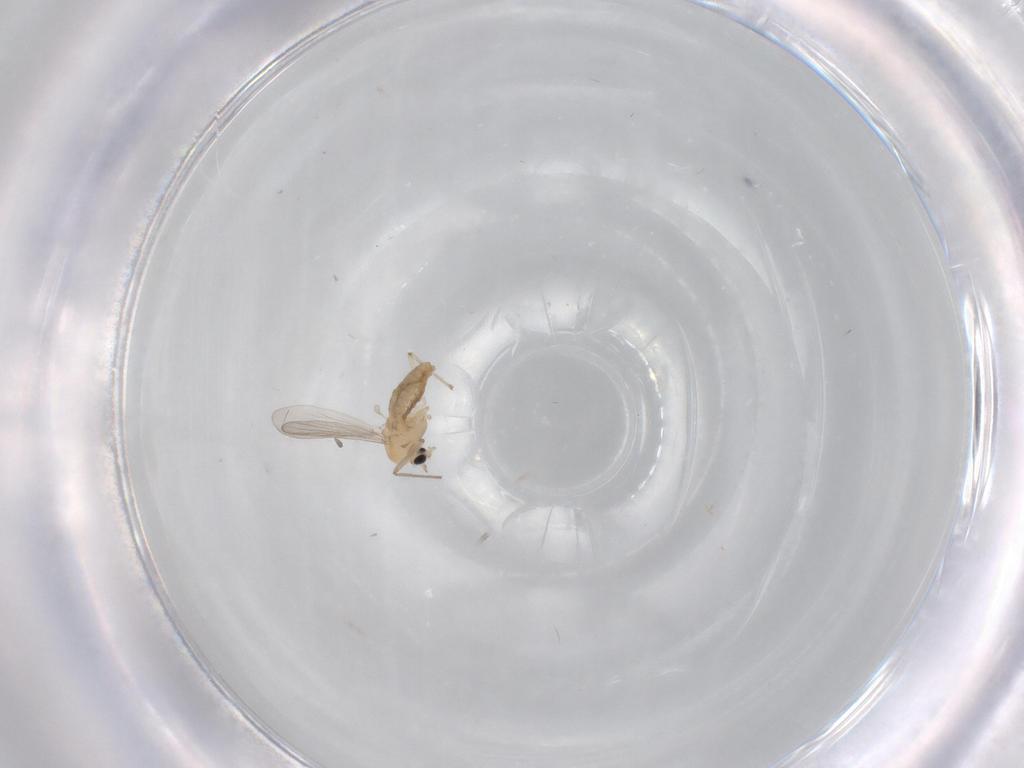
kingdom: Animalia
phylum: Arthropoda
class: Insecta
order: Diptera
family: Chironomidae
